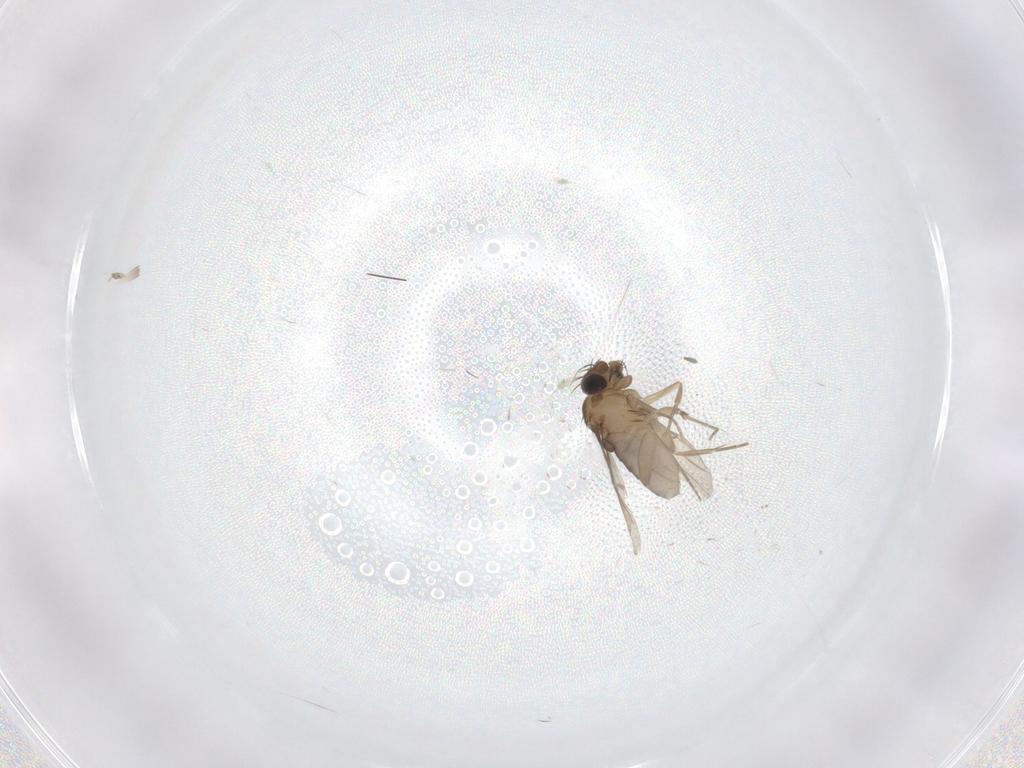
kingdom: Animalia
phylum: Arthropoda
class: Insecta
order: Diptera
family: Phoridae
